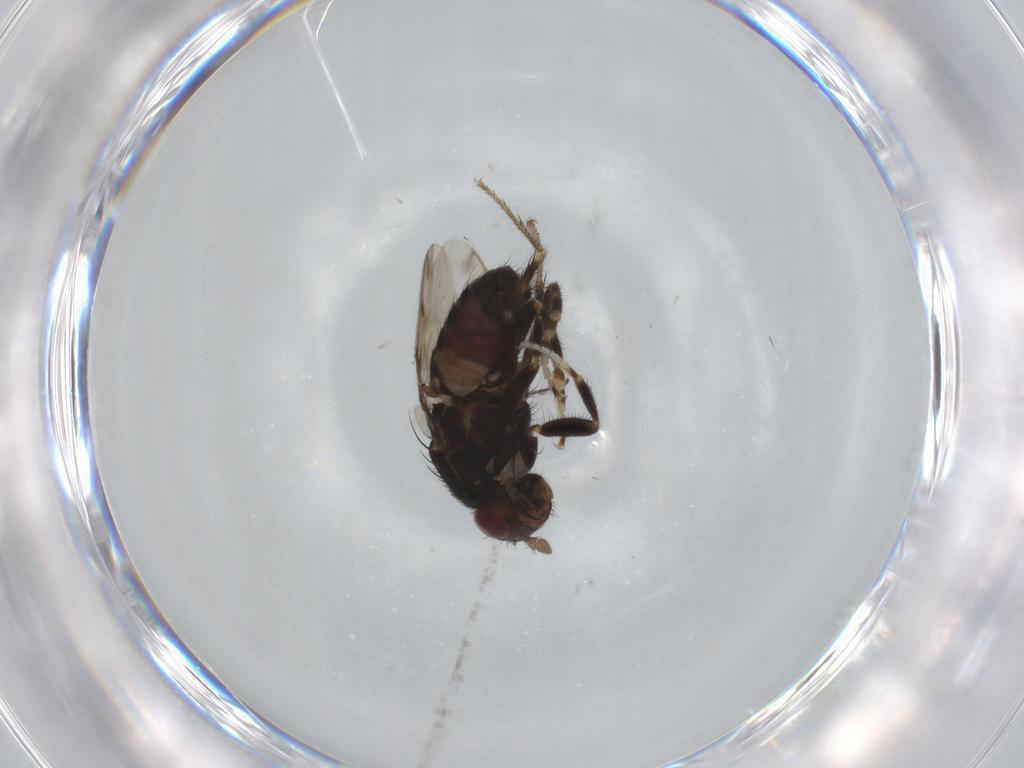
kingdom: Animalia
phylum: Arthropoda
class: Insecta
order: Diptera
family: Sphaeroceridae
